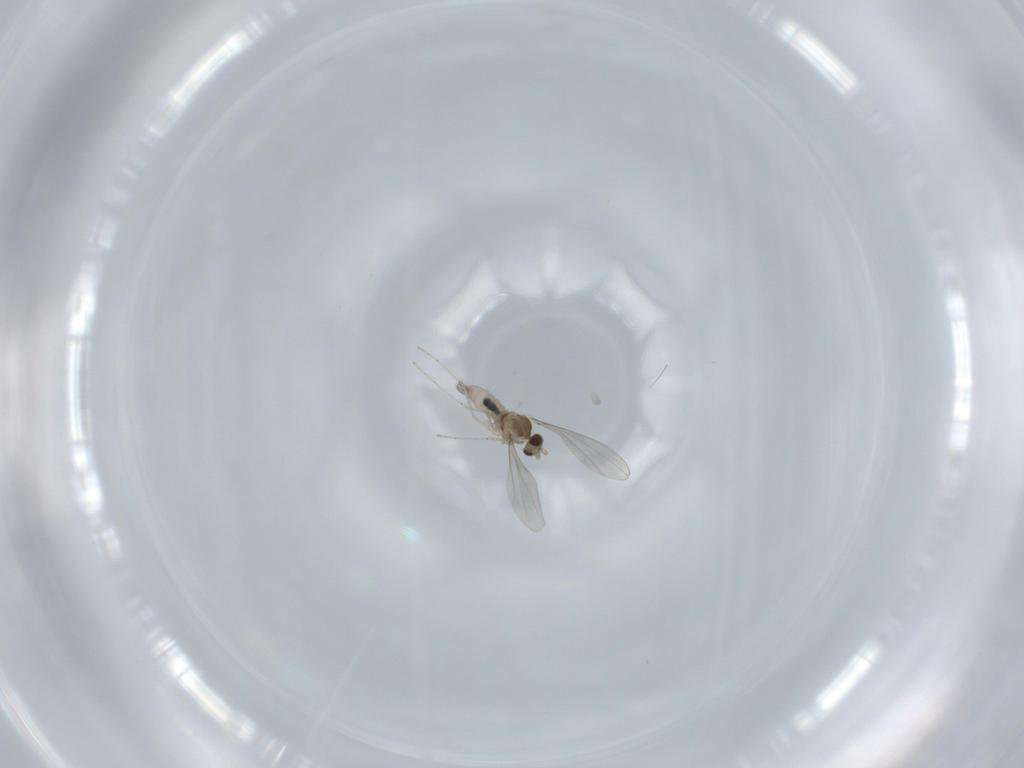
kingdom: Animalia
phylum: Arthropoda
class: Insecta
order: Diptera
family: Cecidomyiidae
